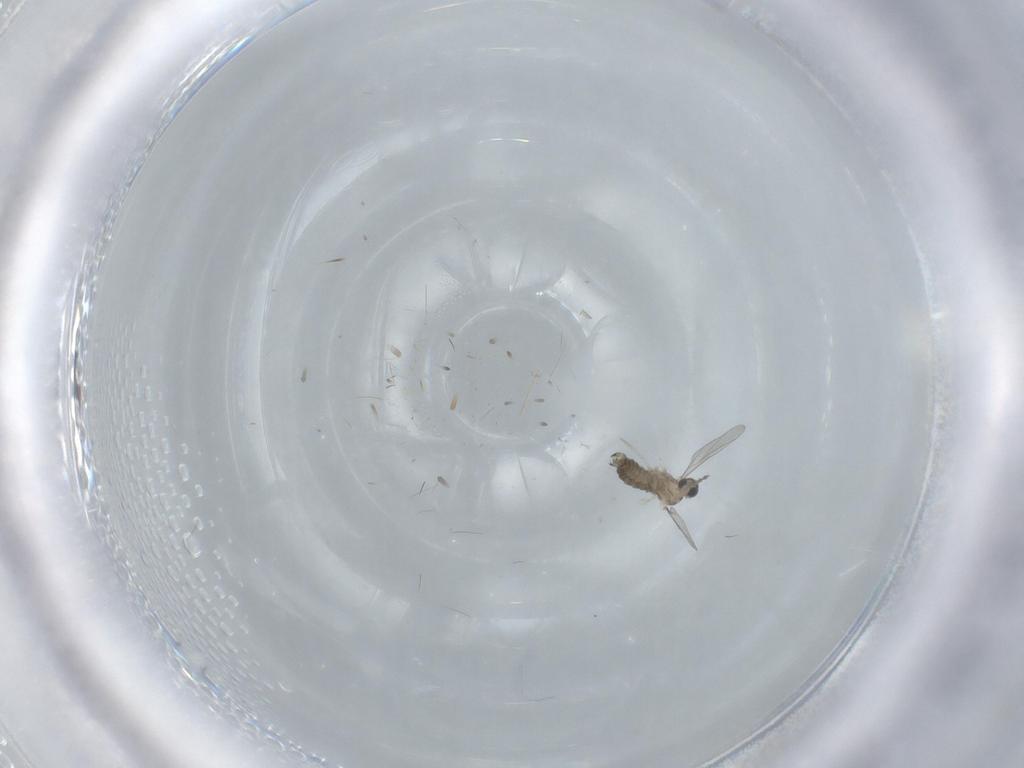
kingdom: Animalia
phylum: Arthropoda
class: Insecta
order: Diptera
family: Cecidomyiidae
